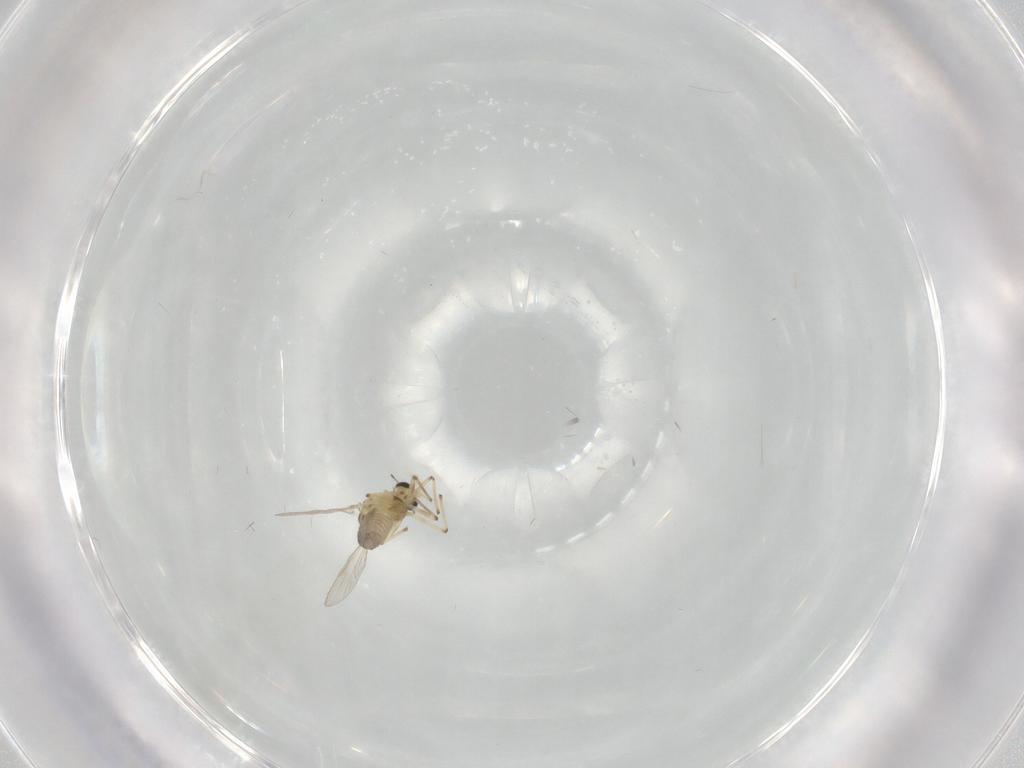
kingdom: Animalia
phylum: Arthropoda
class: Insecta
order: Diptera
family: Chironomidae
